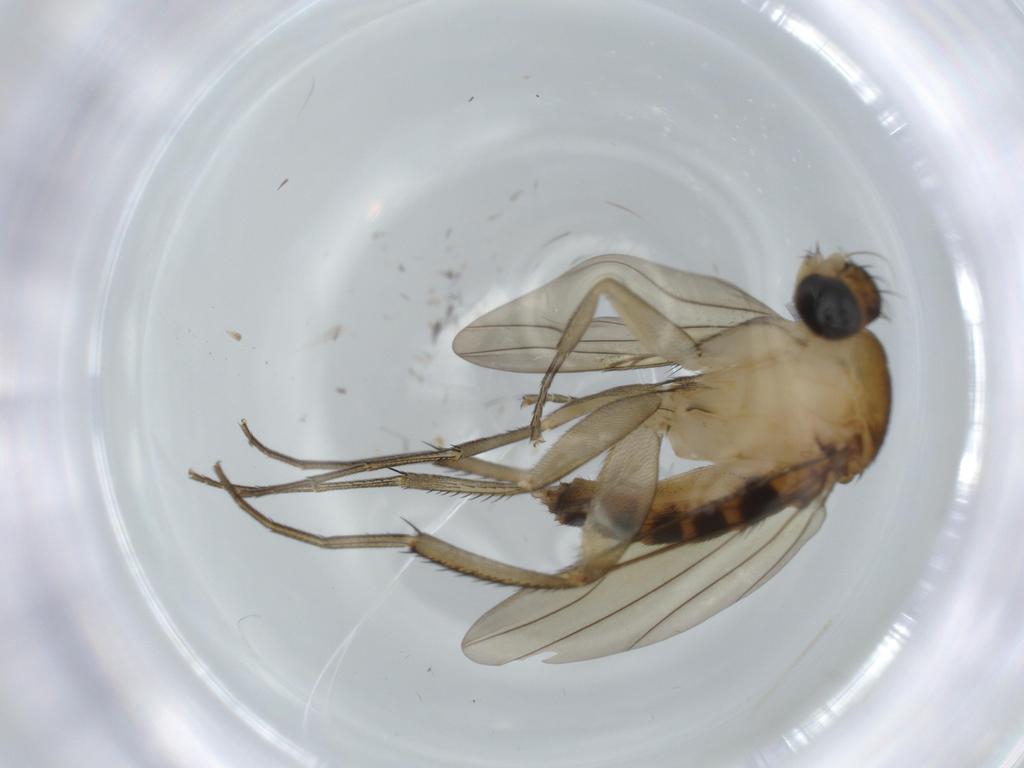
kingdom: Animalia
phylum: Arthropoda
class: Insecta
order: Diptera
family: Phoridae
